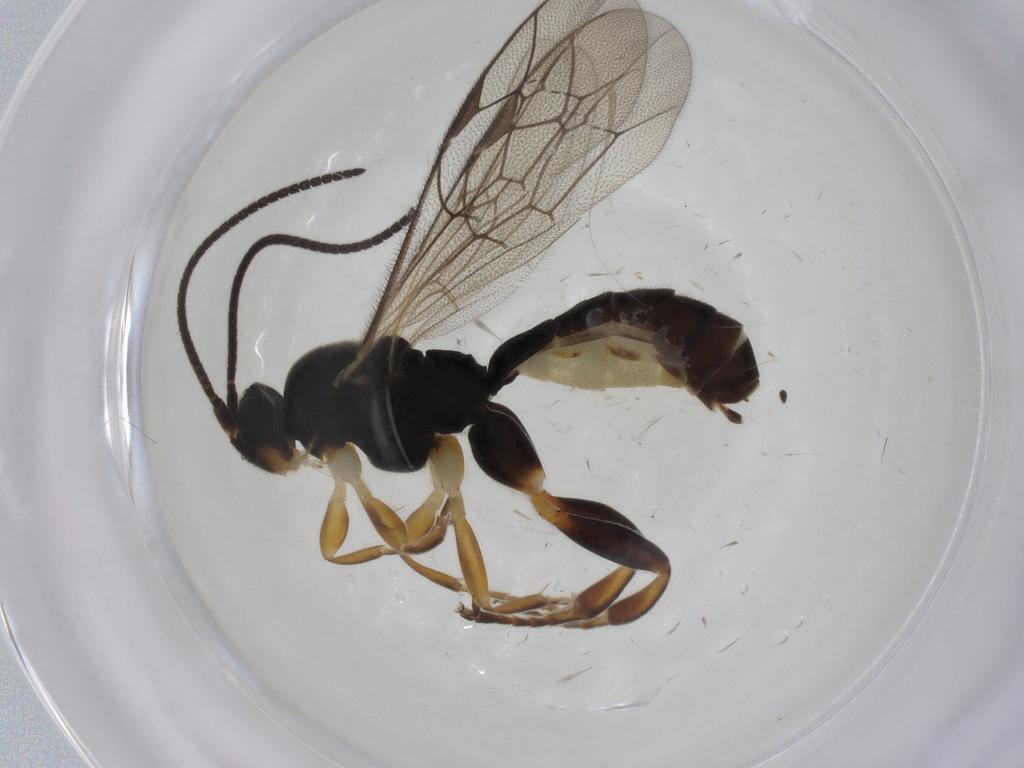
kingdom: Animalia
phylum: Arthropoda
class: Insecta
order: Hymenoptera
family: Ichneumonidae
